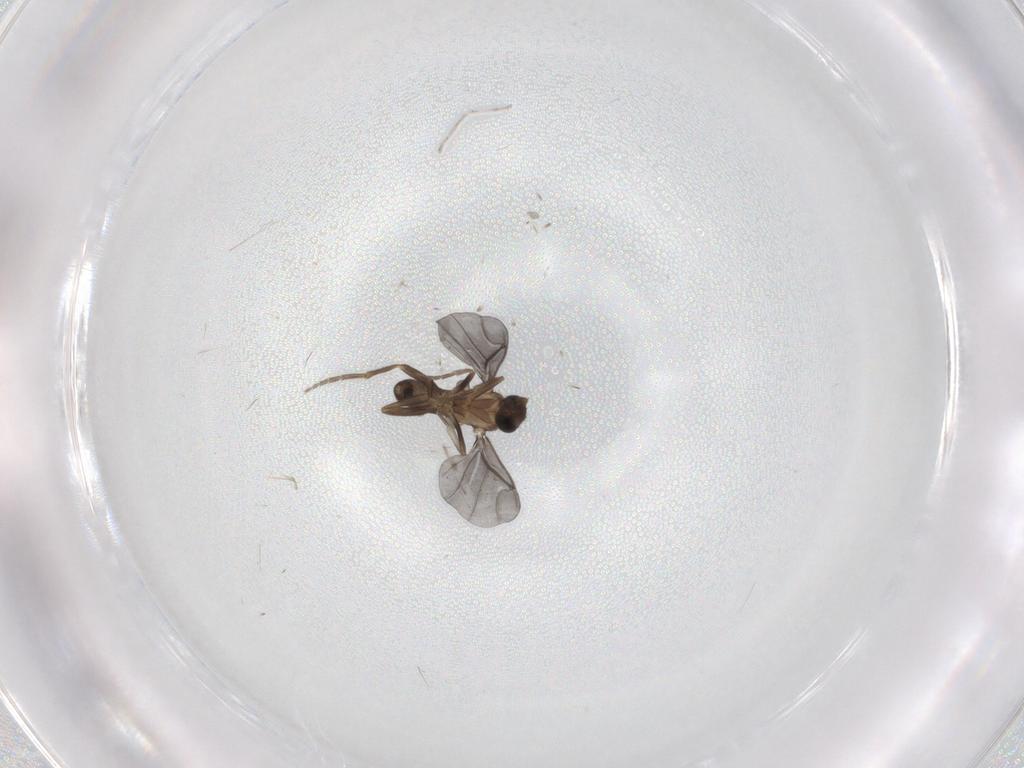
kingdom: Animalia
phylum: Arthropoda
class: Insecta
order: Diptera
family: Phoridae
